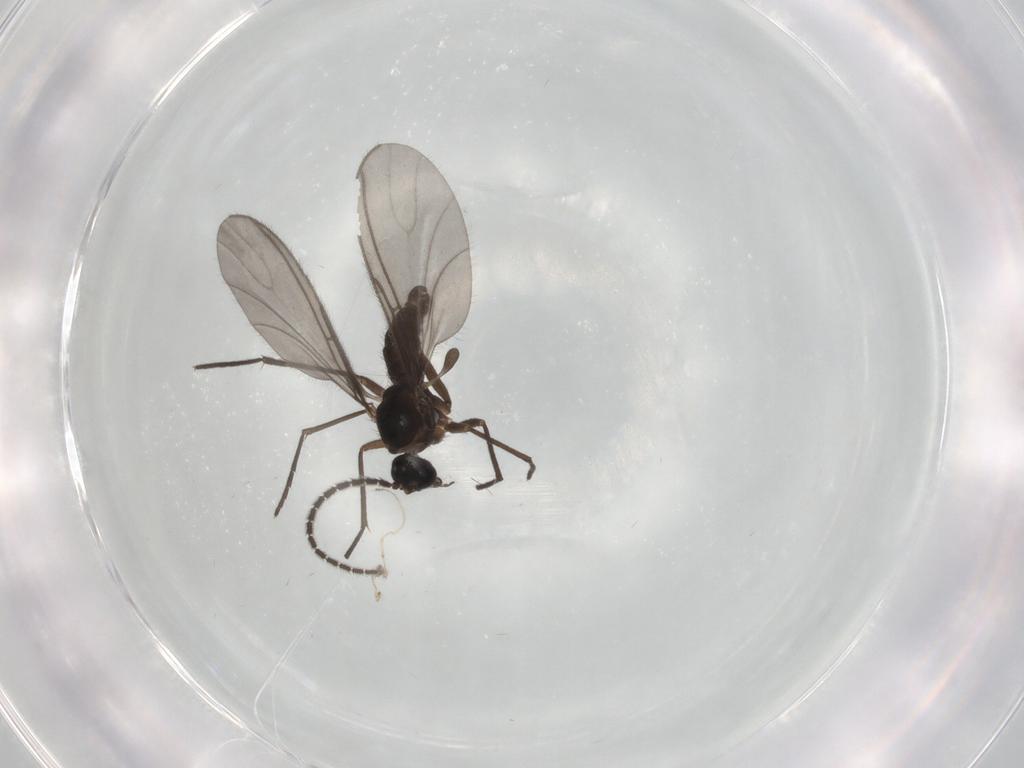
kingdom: Animalia
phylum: Arthropoda
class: Insecta
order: Diptera
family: Sciaridae
